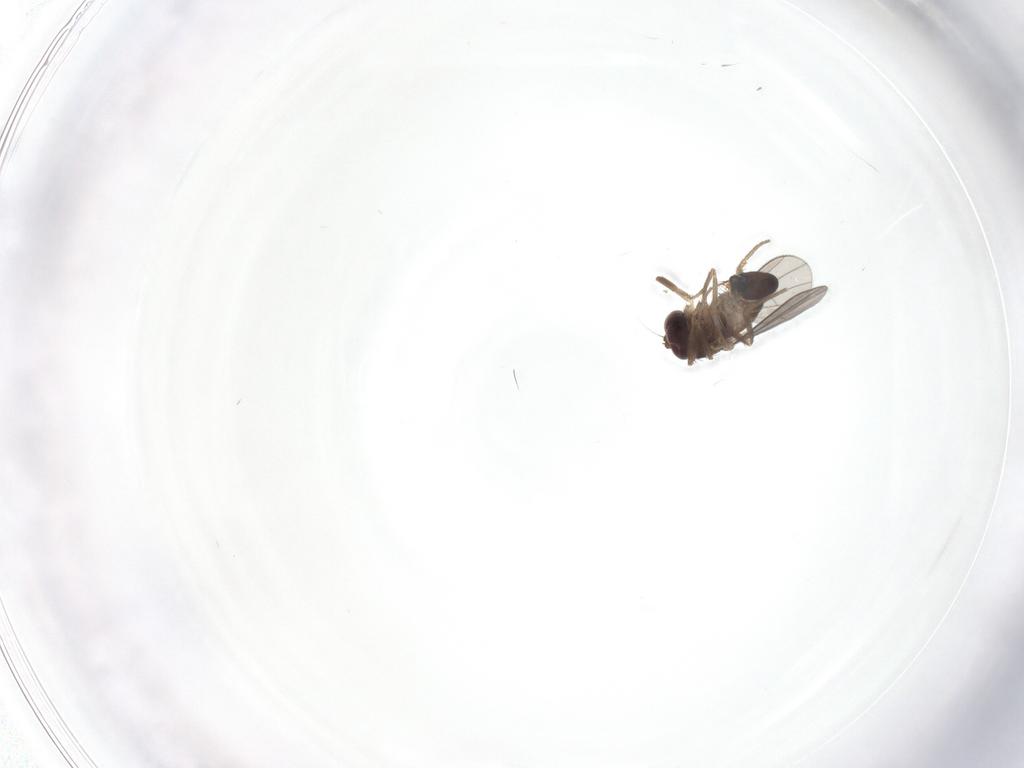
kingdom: Animalia
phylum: Arthropoda
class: Insecta
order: Diptera
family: Dolichopodidae
